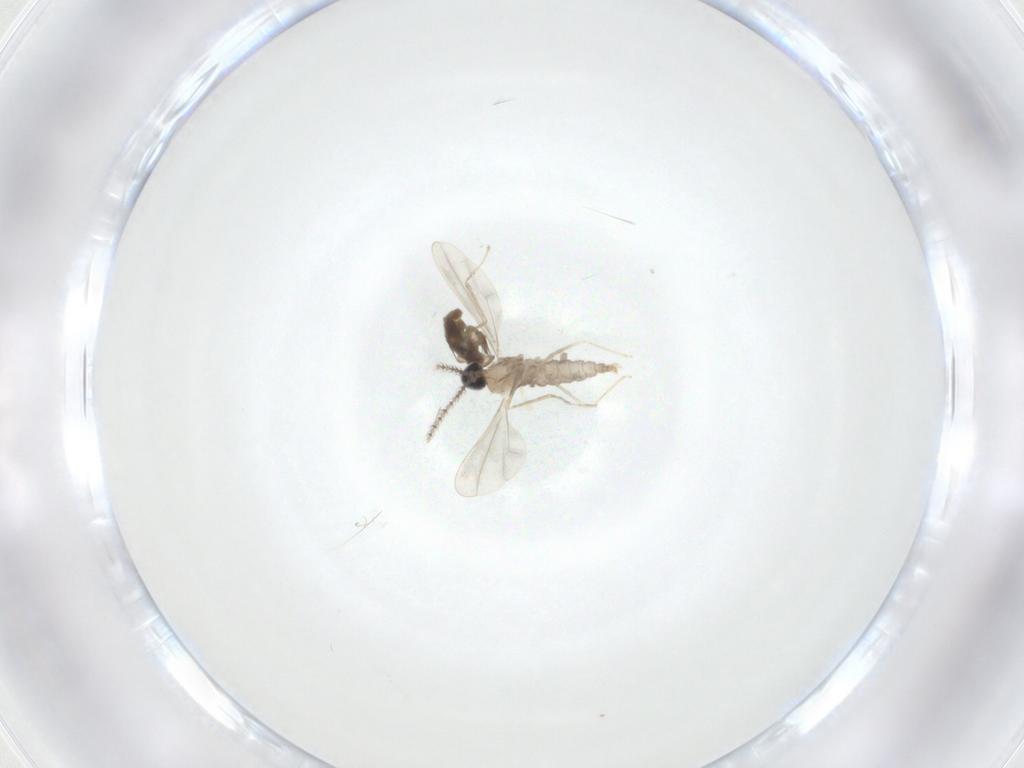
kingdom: Animalia
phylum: Arthropoda
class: Insecta
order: Diptera
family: Cecidomyiidae
